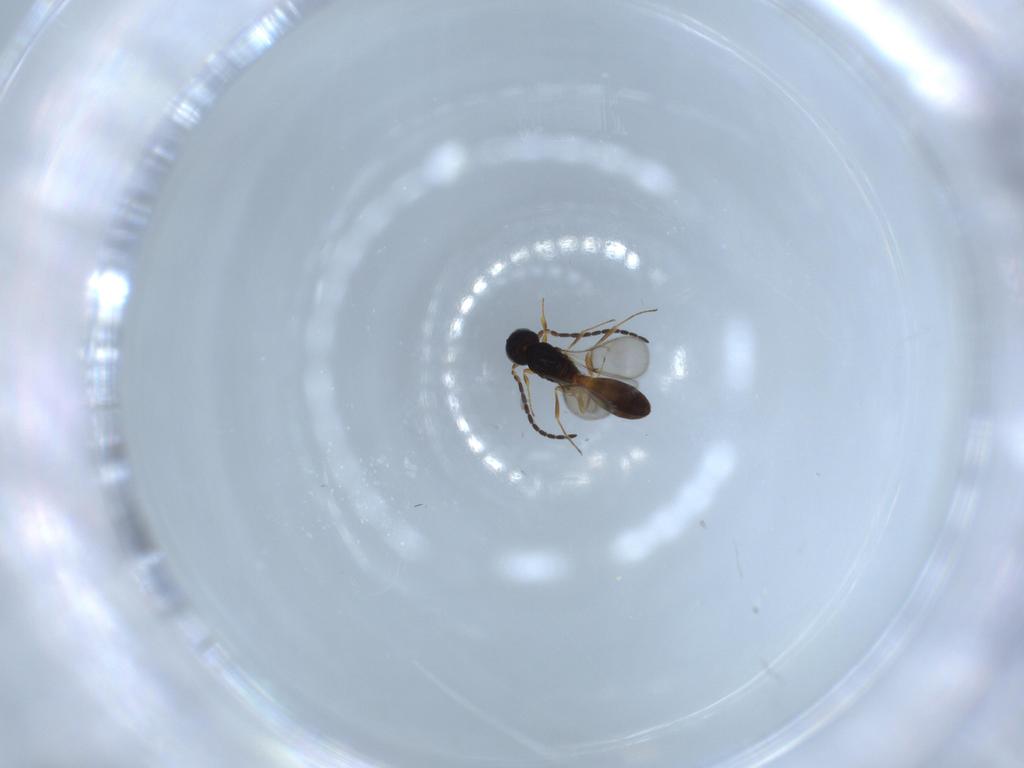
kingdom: Animalia
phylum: Arthropoda
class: Insecta
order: Hymenoptera
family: Scelionidae
